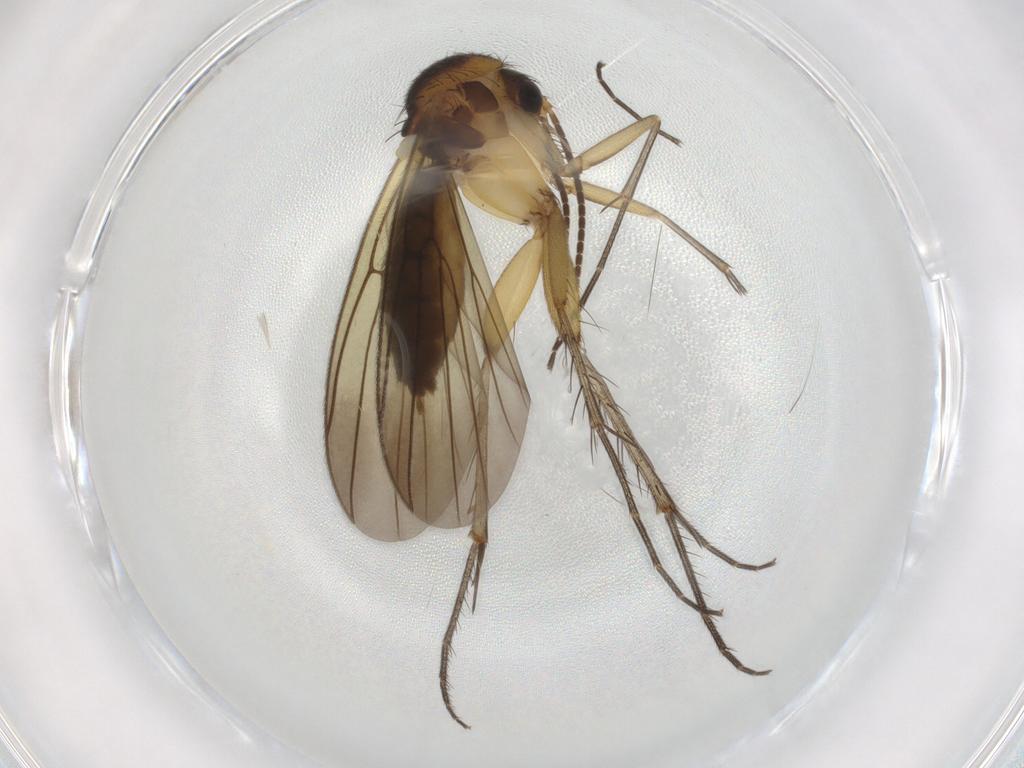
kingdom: Animalia
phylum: Arthropoda
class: Insecta
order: Diptera
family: Mycetophilidae
